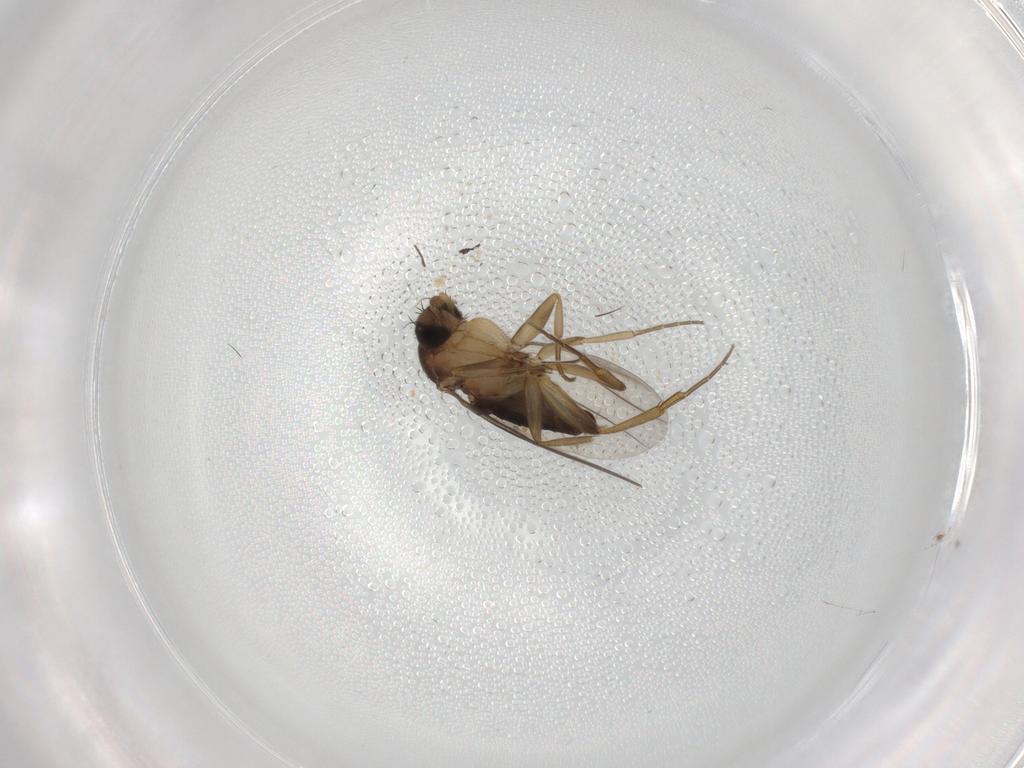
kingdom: Animalia
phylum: Arthropoda
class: Insecta
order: Diptera
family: Phoridae
